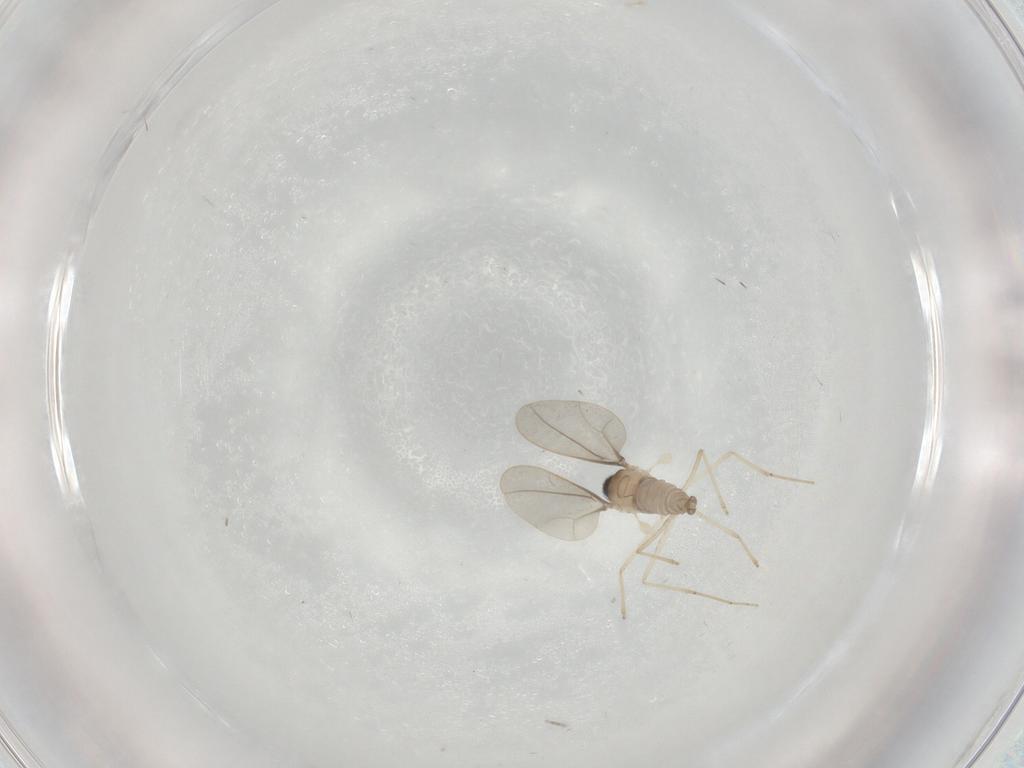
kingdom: Animalia
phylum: Arthropoda
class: Insecta
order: Diptera
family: Cecidomyiidae
